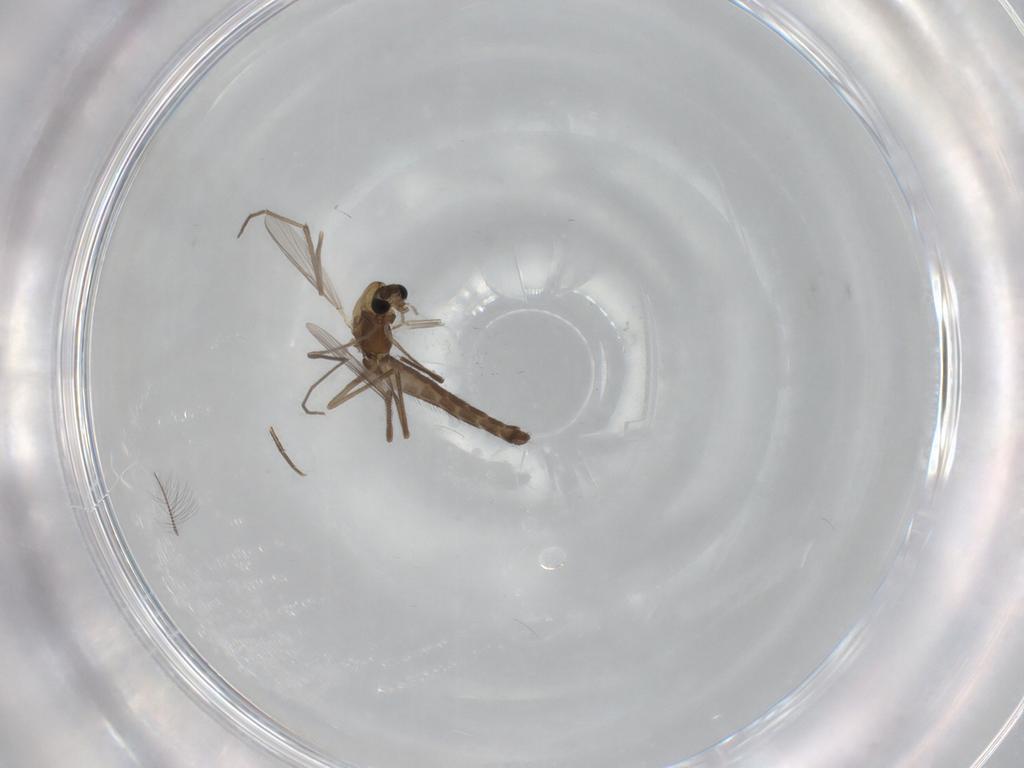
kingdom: Animalia
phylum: Arthropoda
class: Insecta
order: Diptera
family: Chironomidae
